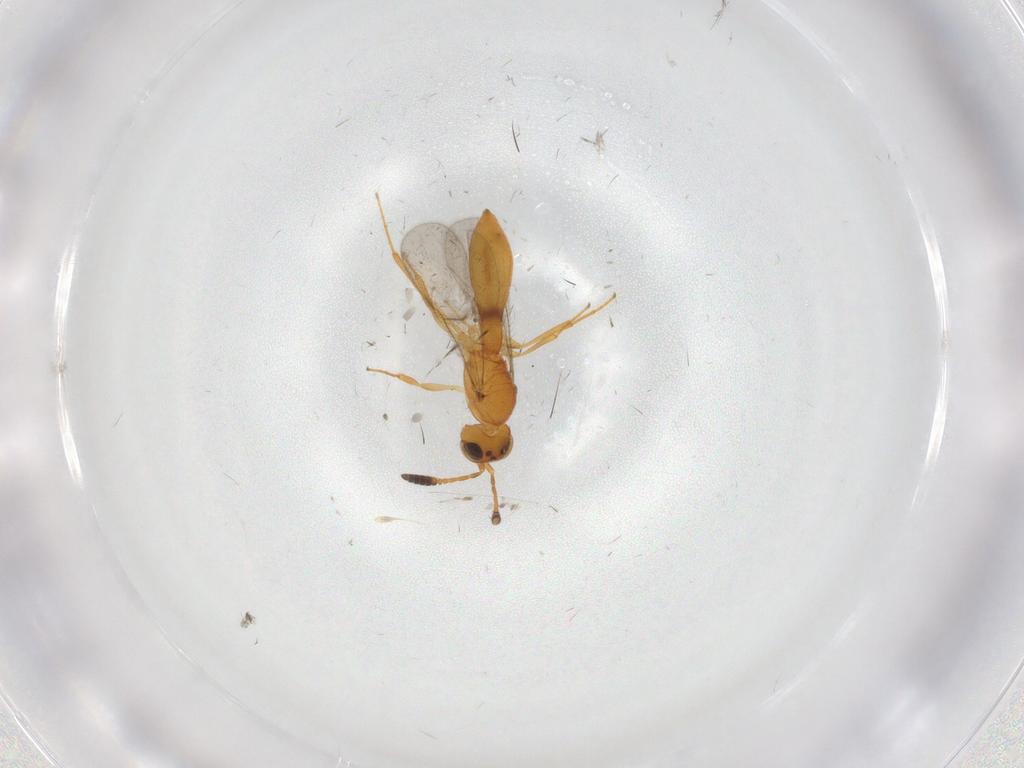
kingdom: Animalia
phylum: Arthropoda
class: Insecta
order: Hymenoptera
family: Scelionidae
